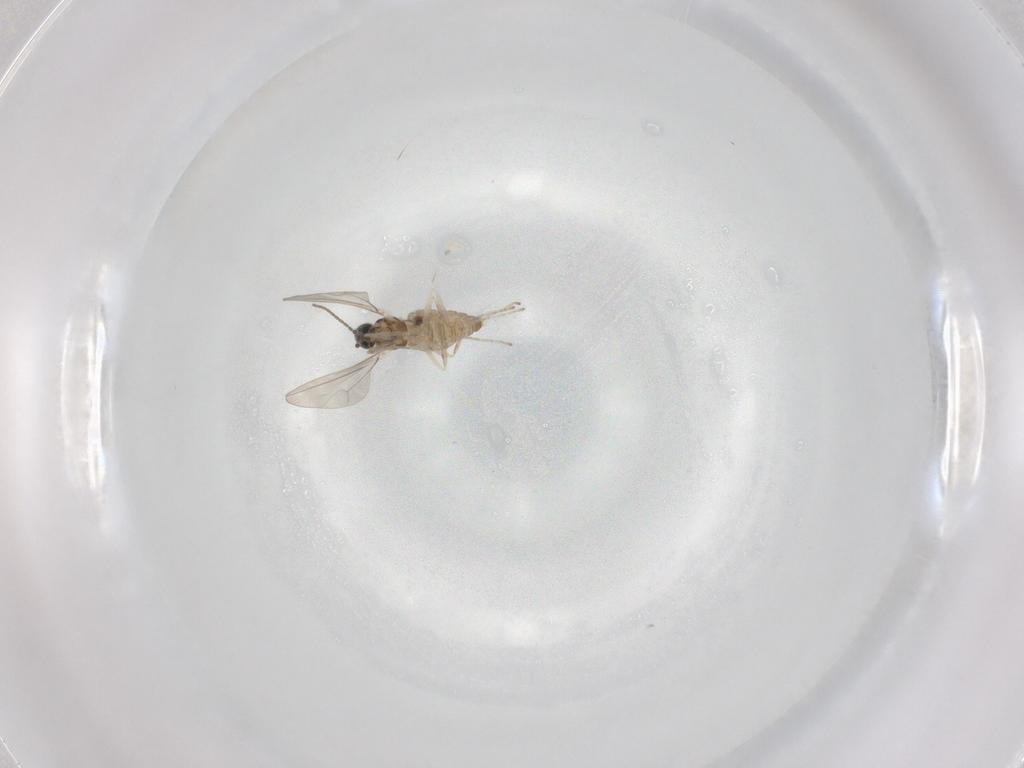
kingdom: Animalia
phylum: Arthropoda
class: Insecta
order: Diptera
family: Cecidomyiidae
